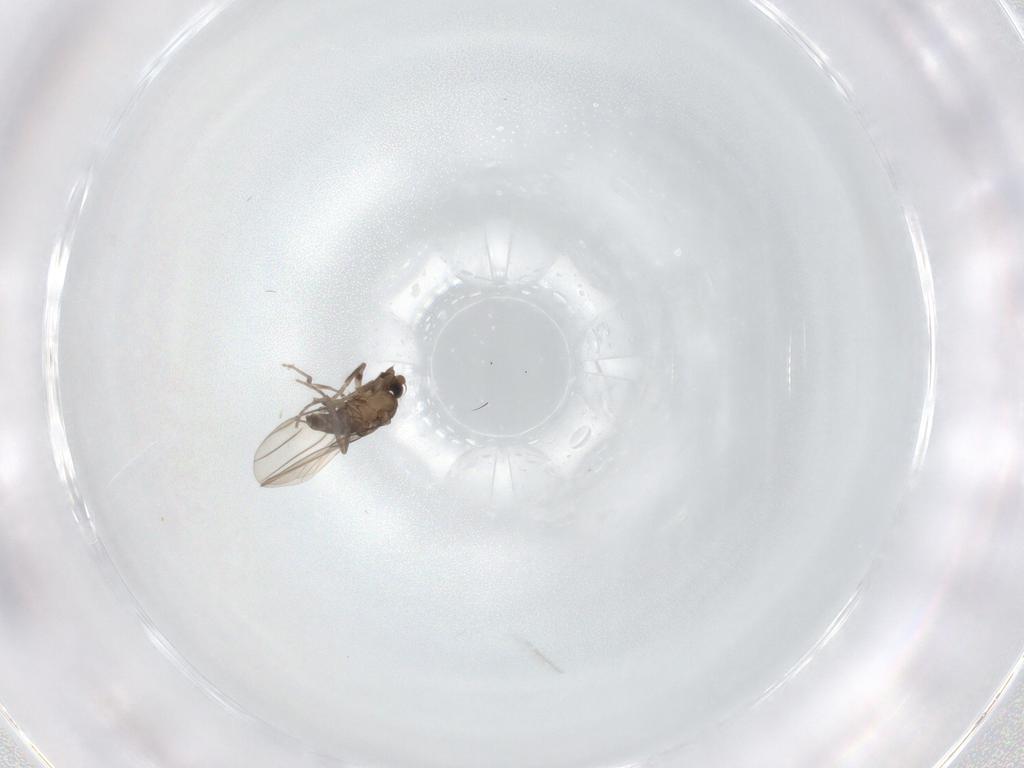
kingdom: Animalia
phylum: Arthropoda
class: Insecta
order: Diptera
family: Phoridae
